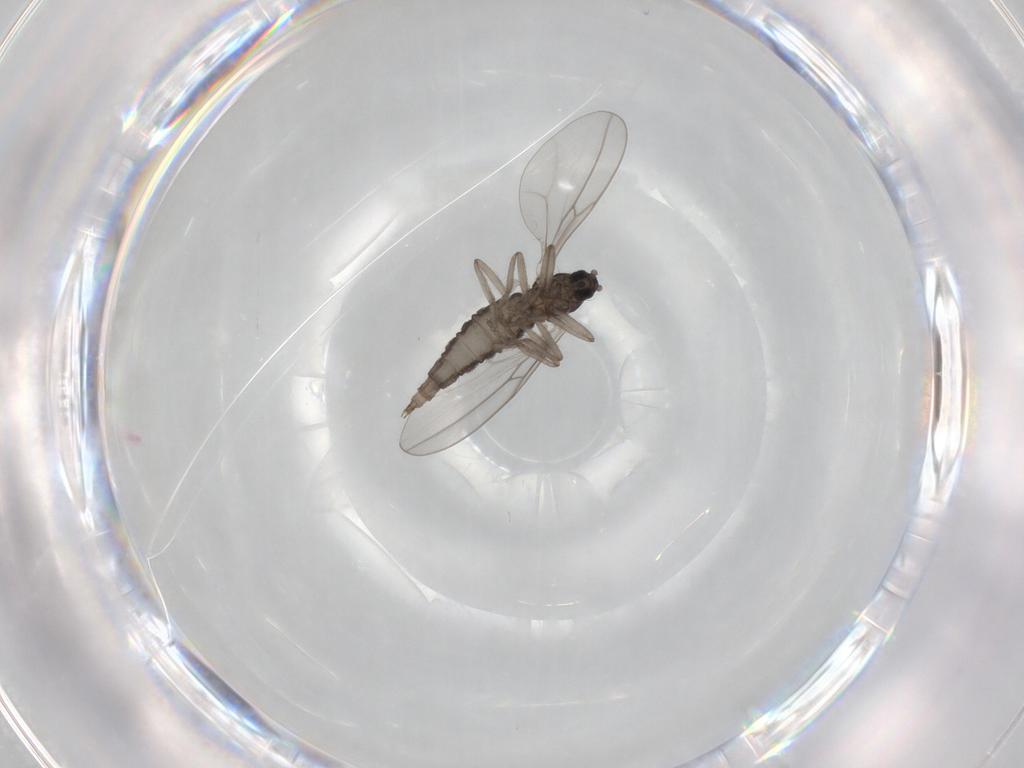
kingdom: Animalia
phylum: Arthropoda
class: Insecta
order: Diptera
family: Cecidomyiidae
